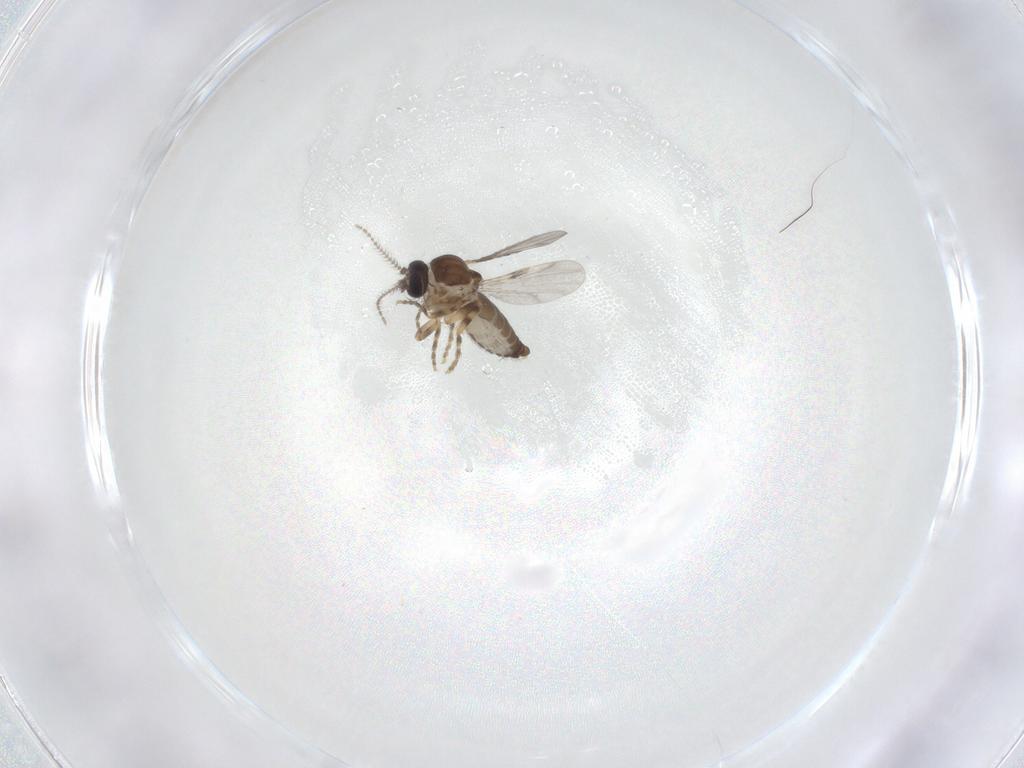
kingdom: Animalia
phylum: Arthropoda
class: Insecta
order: Diptera
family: Ceratopogonidae
